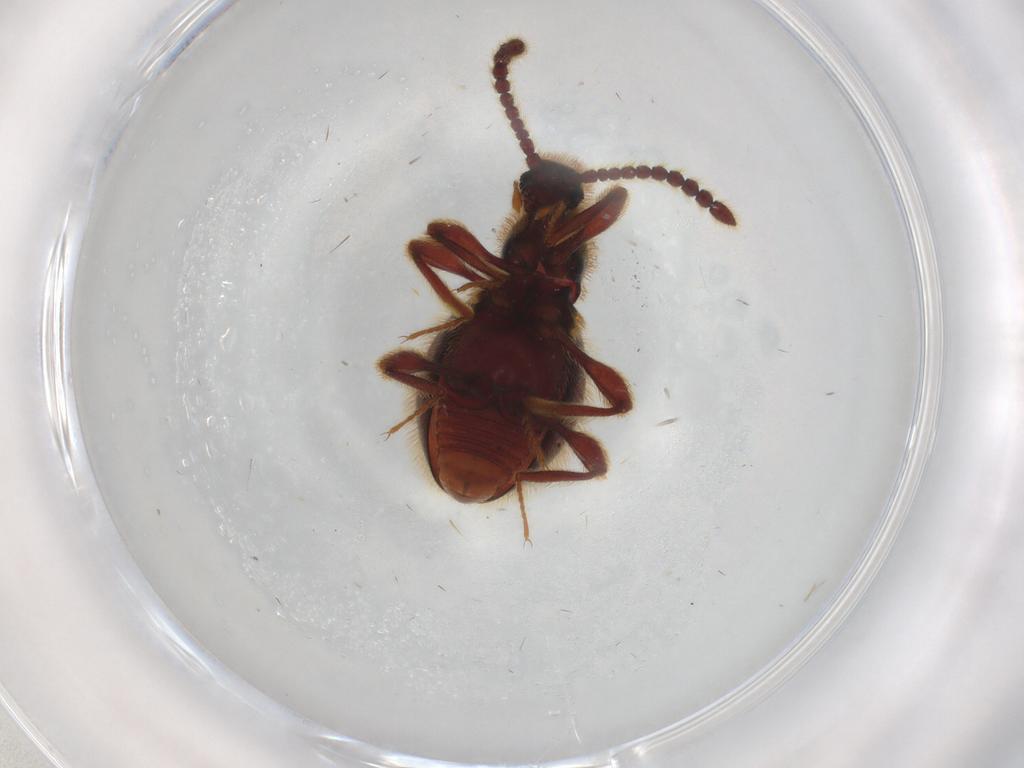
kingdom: Animalia
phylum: Arthropoda
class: Insecta
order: Coleoptera
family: Staphylinidae
